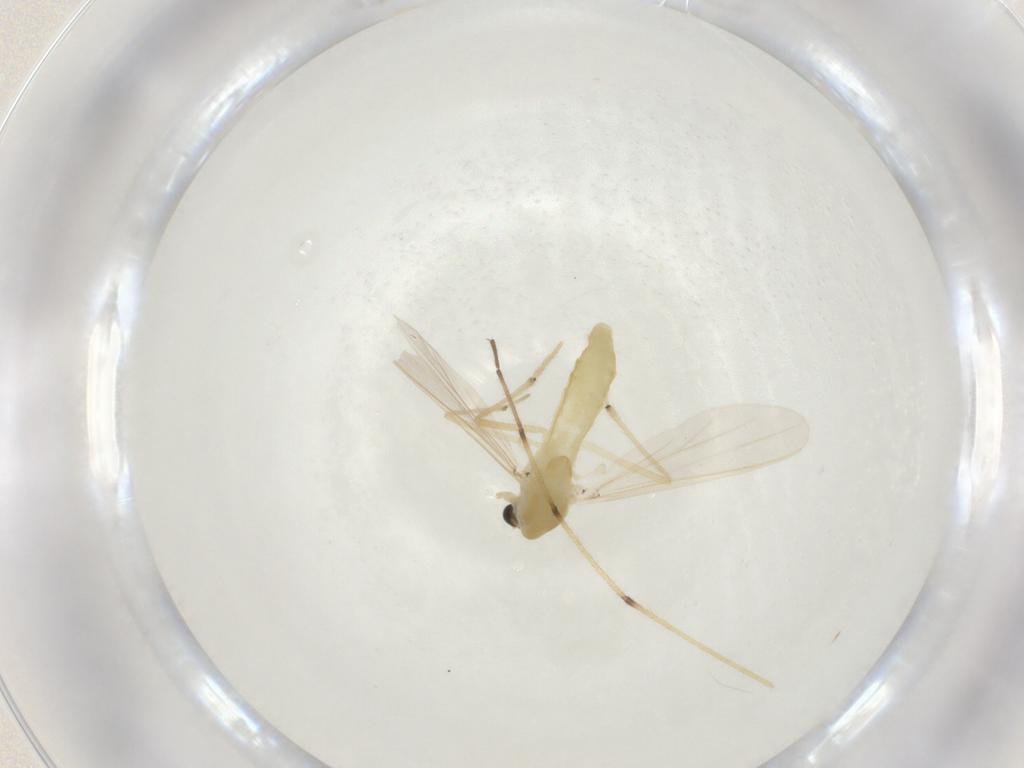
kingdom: Animalia
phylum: Arthropoda
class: Insecta
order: Diptera
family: Chironomidae
